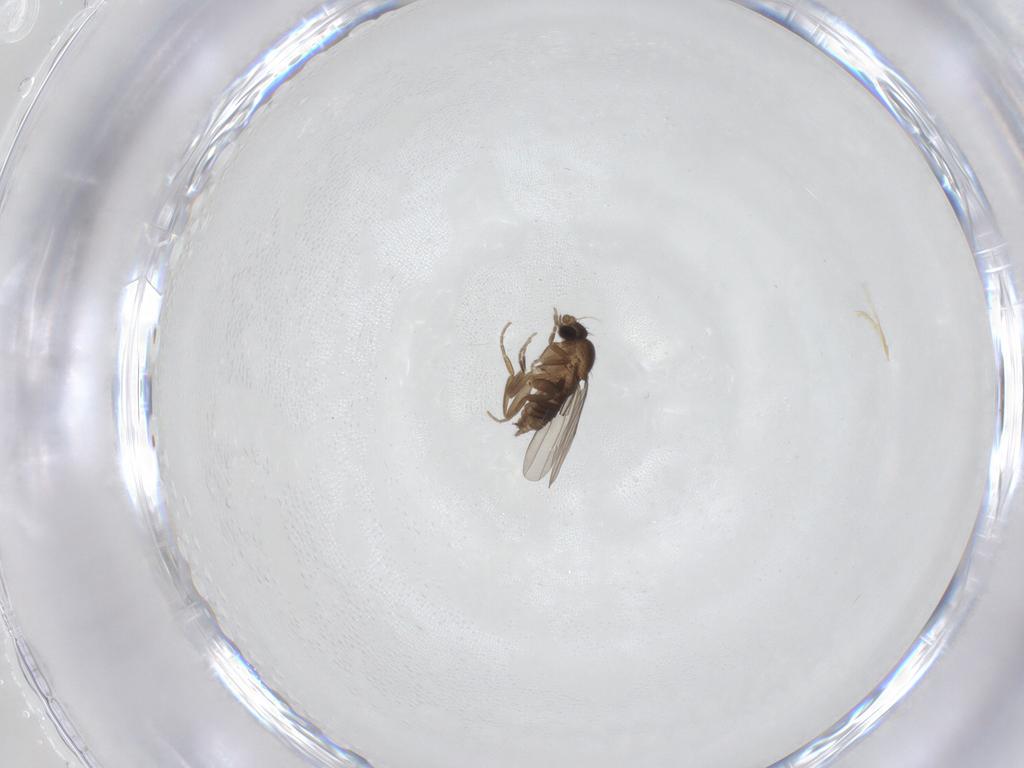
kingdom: Animalia
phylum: Arthropoda
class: Insecta
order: Diptera
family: Phoridae
